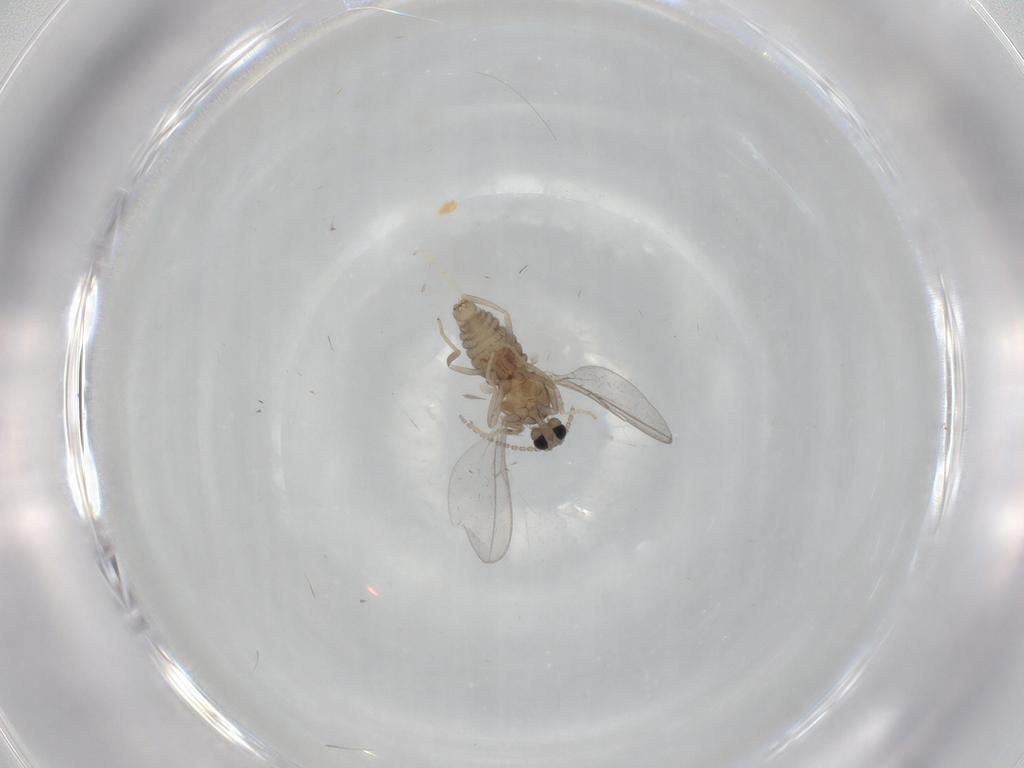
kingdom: Animalia
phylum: Arthropoda
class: Insecta
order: Diptera
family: Cecidomyiidae
